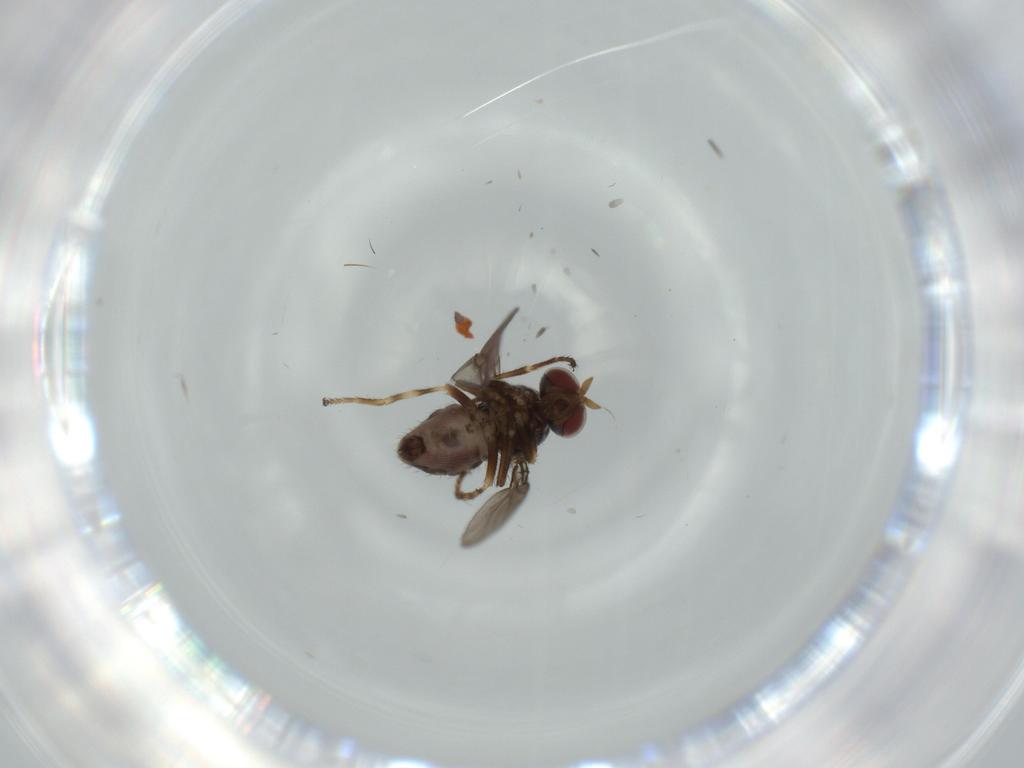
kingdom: Animalia
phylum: Arthropoda
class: Insecta
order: Diptera
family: Ephydridae
